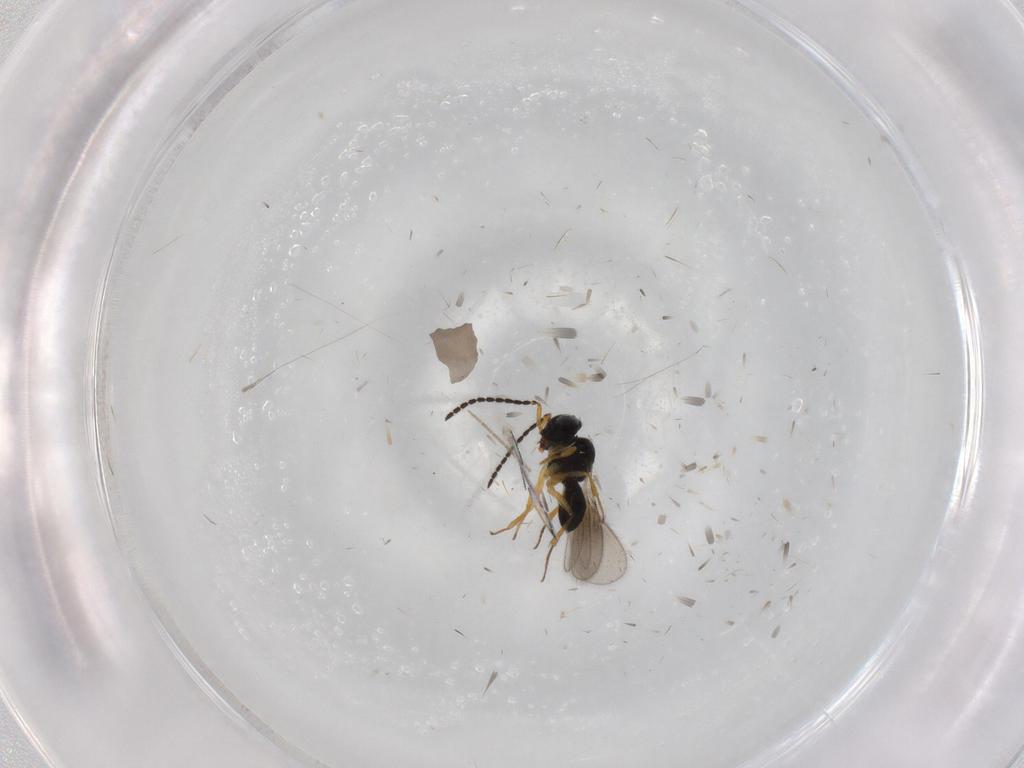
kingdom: Animalia
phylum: Arthropoda
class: Insecta
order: Hymenoptera
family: Scelionidae
